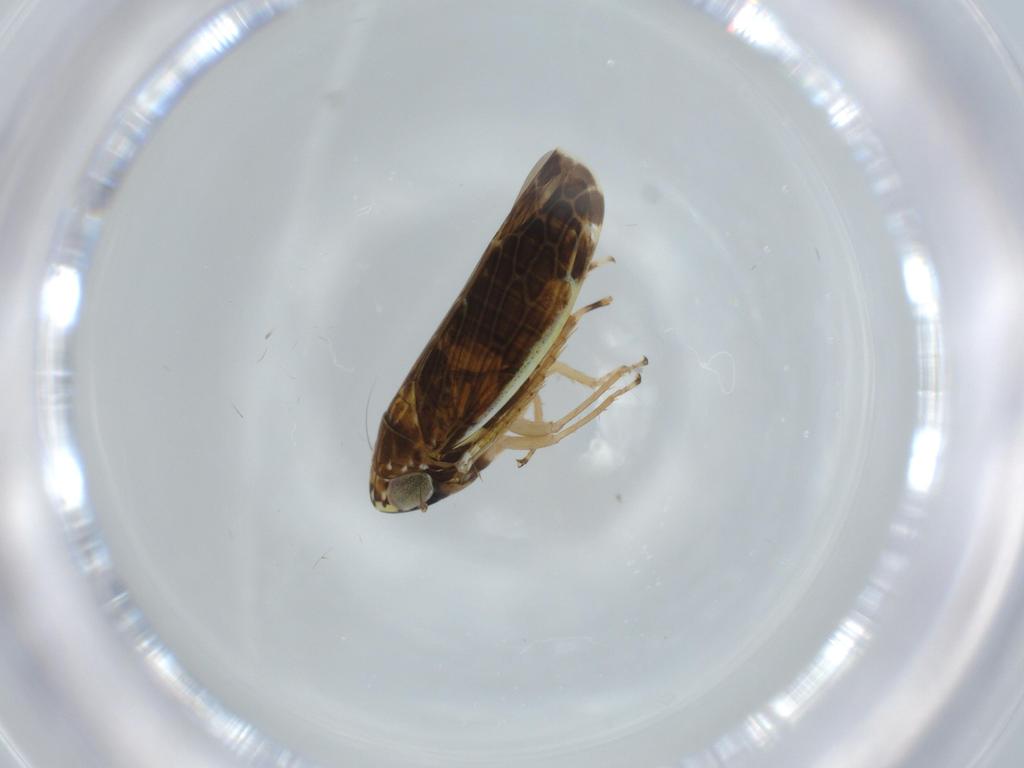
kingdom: Animalia
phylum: Arthropoda
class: Insecta
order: Hemiptera
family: Cicadellidae
